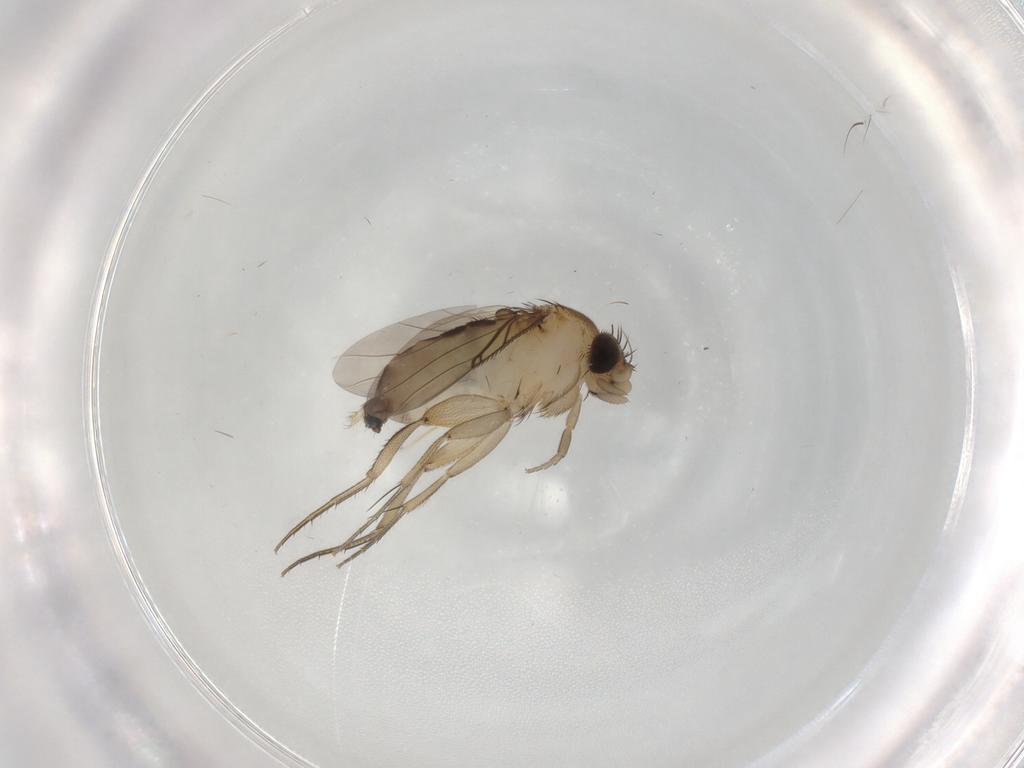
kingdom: Animalia
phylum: Arthropoda
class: Insecta
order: Diptera
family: Phoridae
